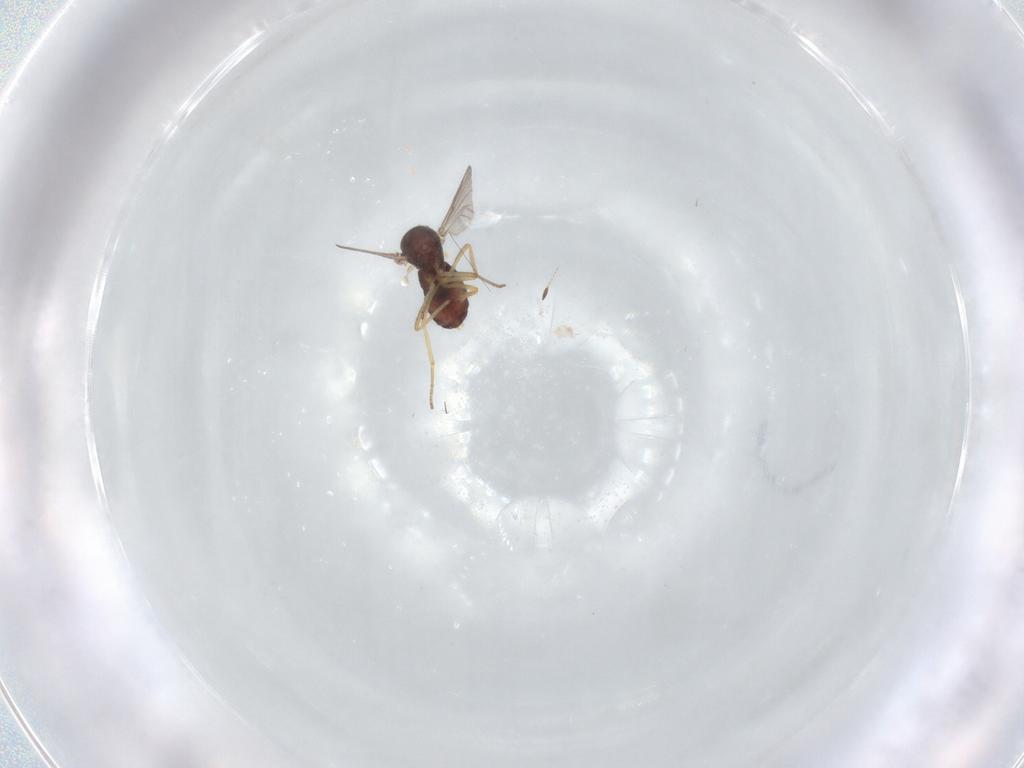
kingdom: Animalia
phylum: Arthropoda
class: Insecta
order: Diptera
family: Ceratopogonidae
